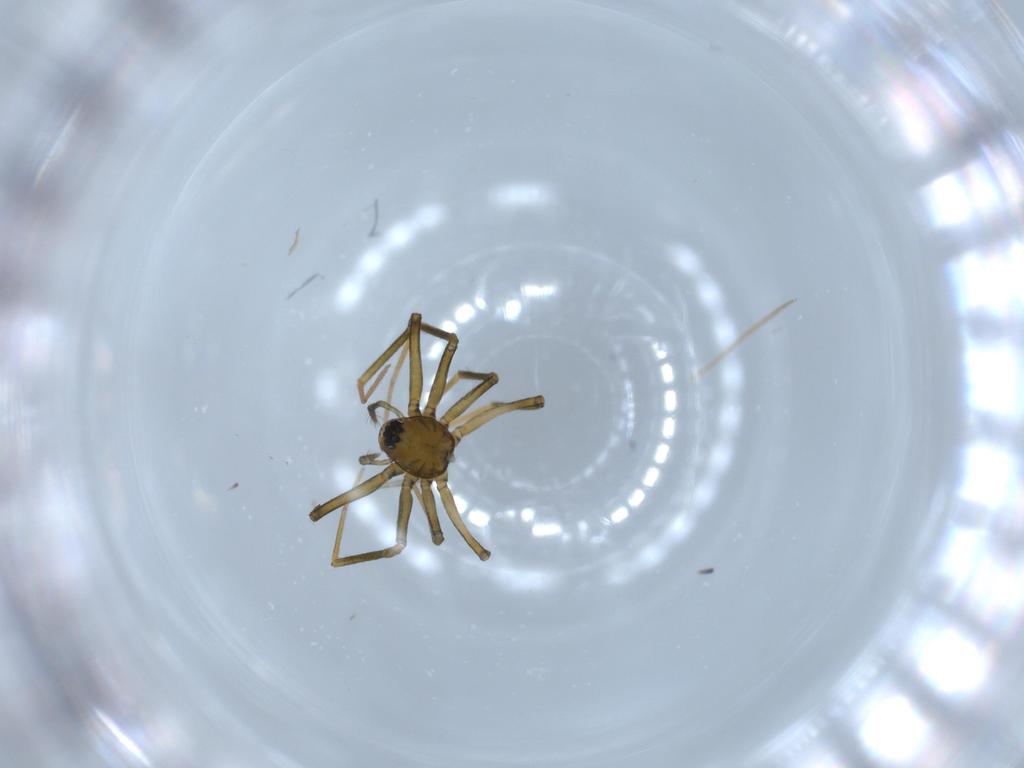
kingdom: Animalia
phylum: Arthropoda
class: Arachnida
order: Araneae
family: Linyphiidae
